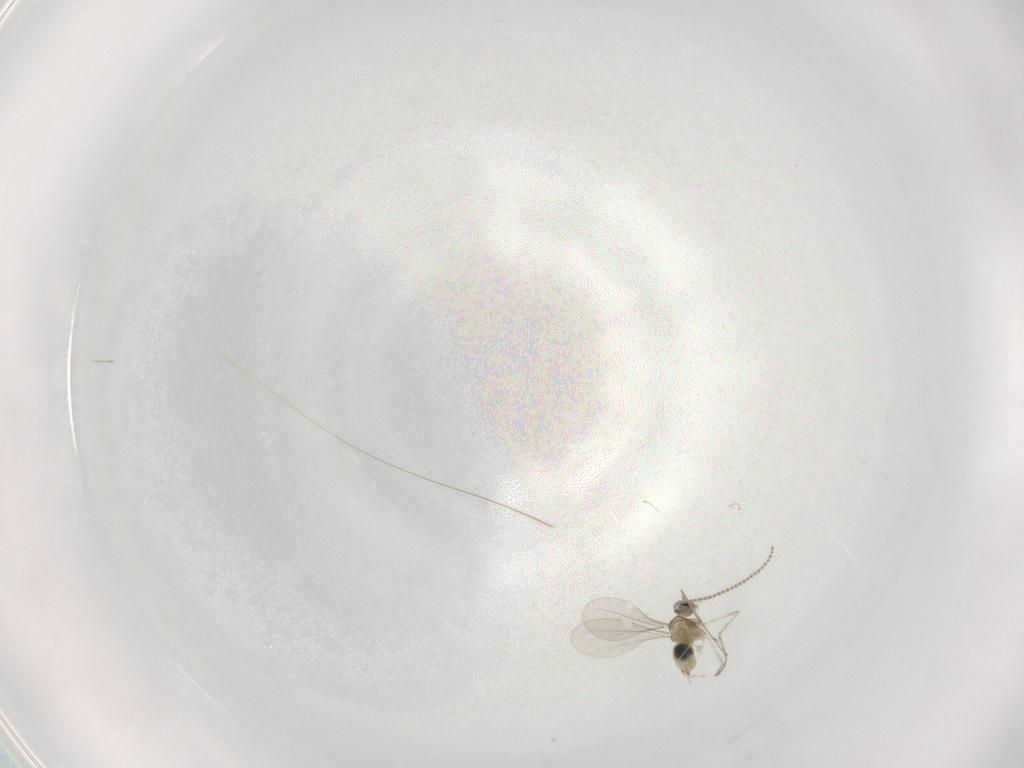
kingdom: Animalia
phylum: Arthropoda
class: Insecta
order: Diptera
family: Cecidomyiidae
